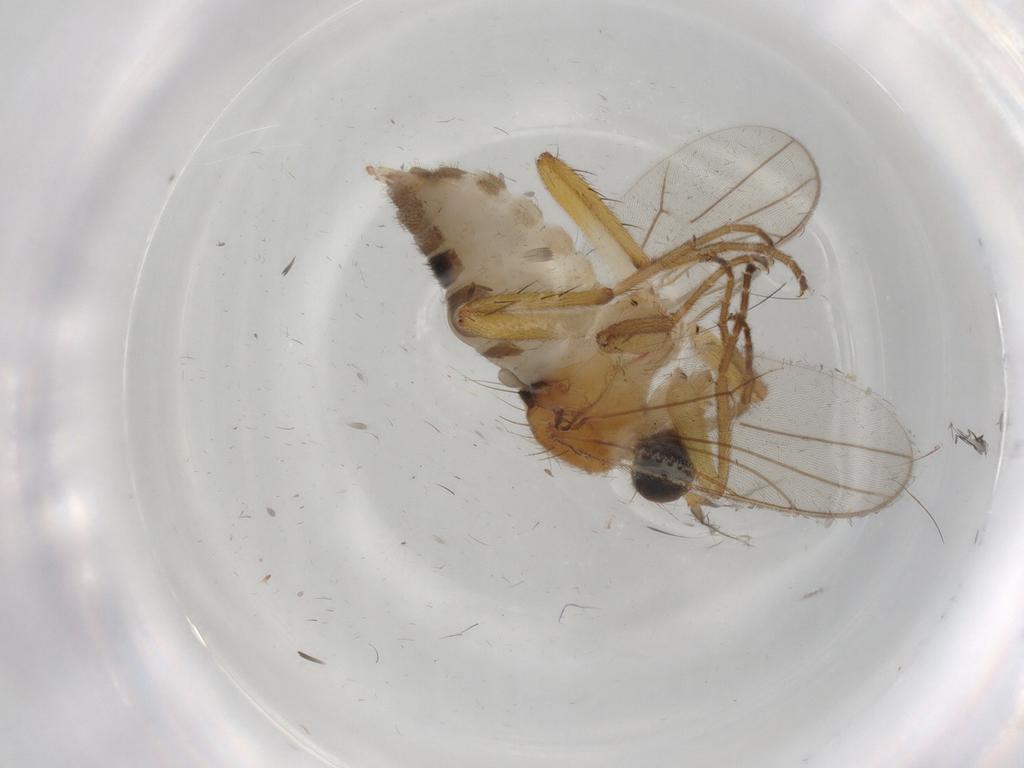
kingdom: Animalia
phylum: Arthropoda
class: Insecta
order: Diptera
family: Hybotidae
